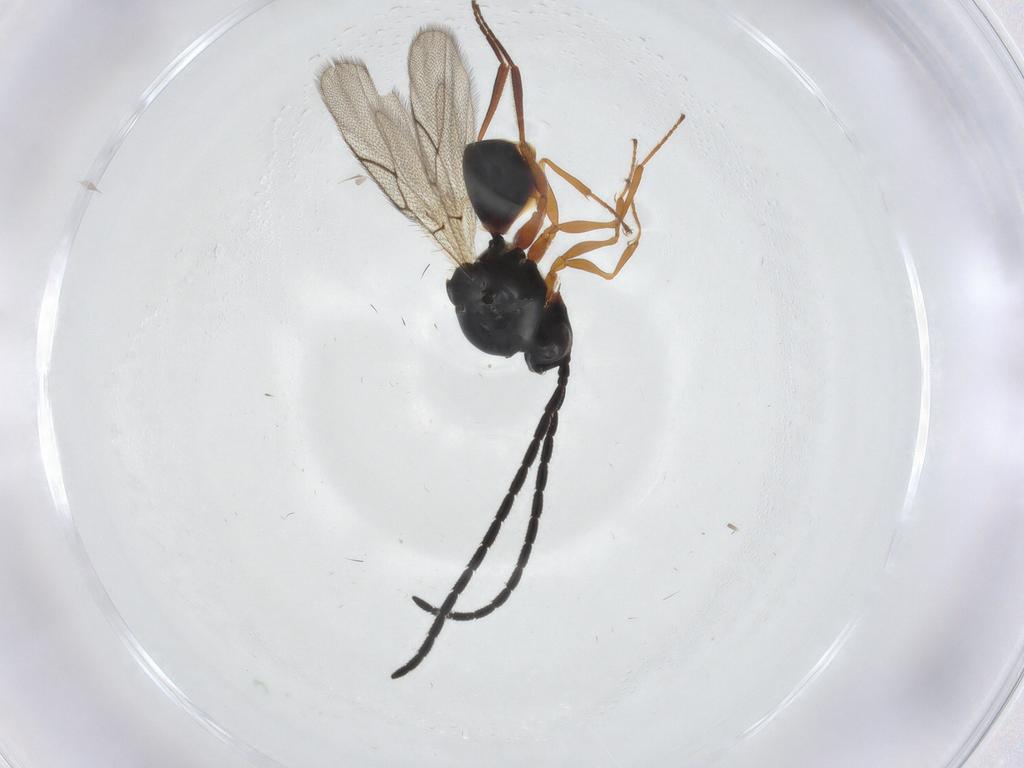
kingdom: Animalia
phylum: Arthropoda
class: Insecta
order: Hymenoptera
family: Figitidae
